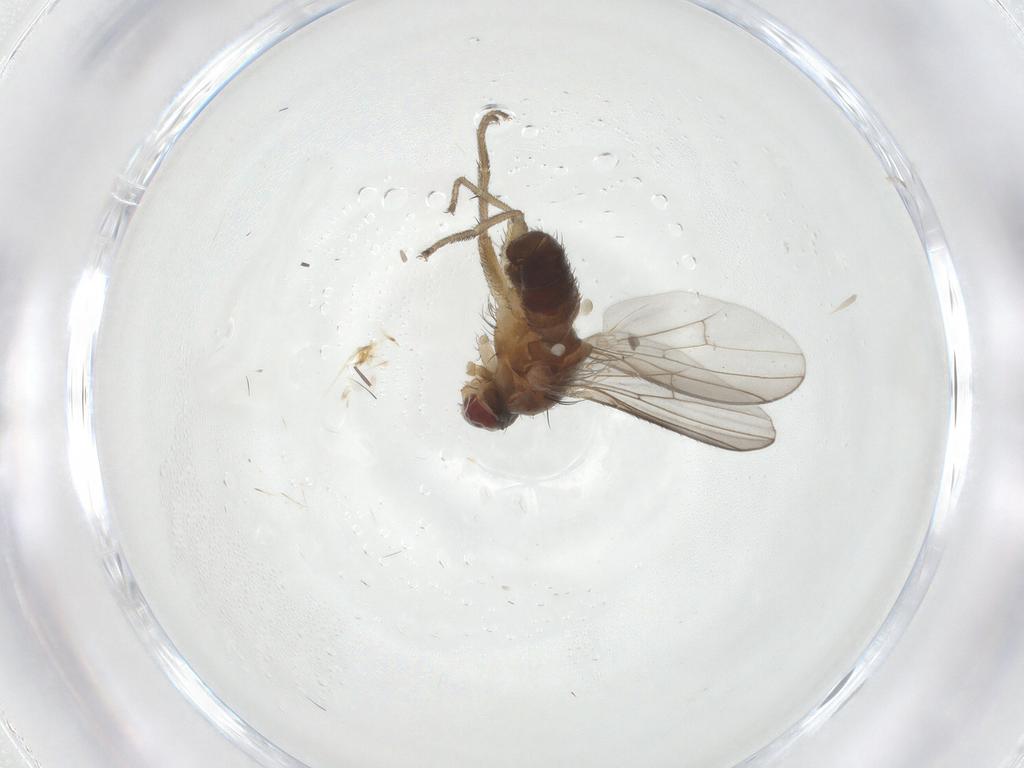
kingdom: Animalia
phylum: Arthropoda
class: Insecta
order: Diptera
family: Heleomyzidae
